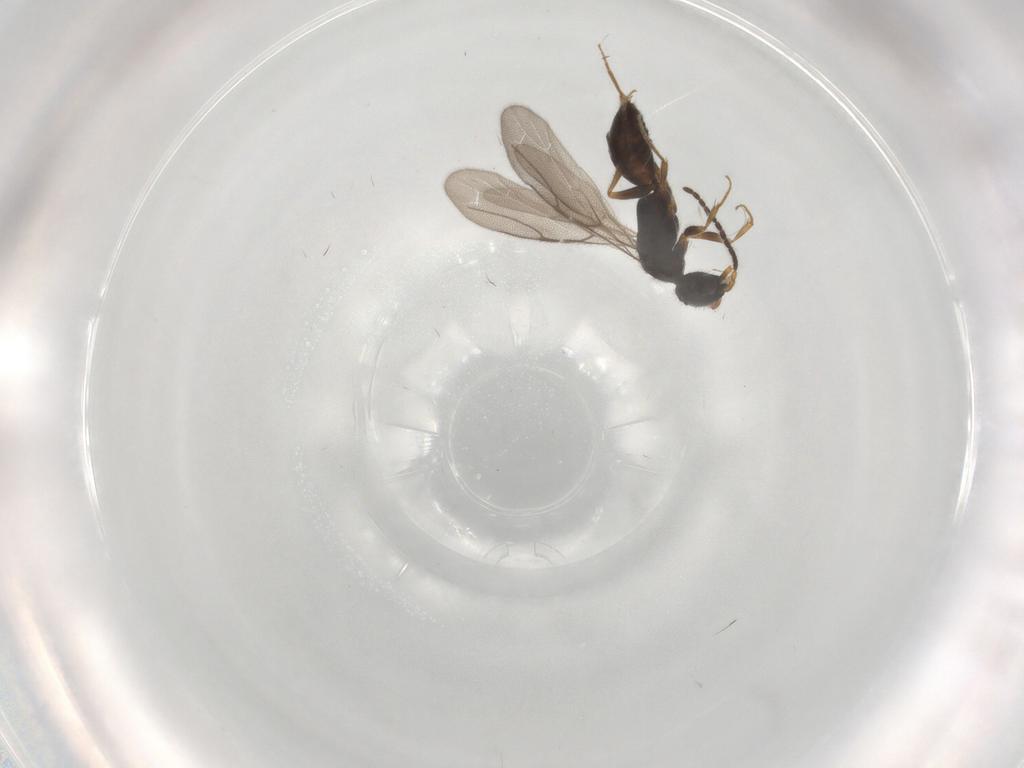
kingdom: Animalia
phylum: Arthropoda
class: Insecta
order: Hymenoptera
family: Bethylidae
